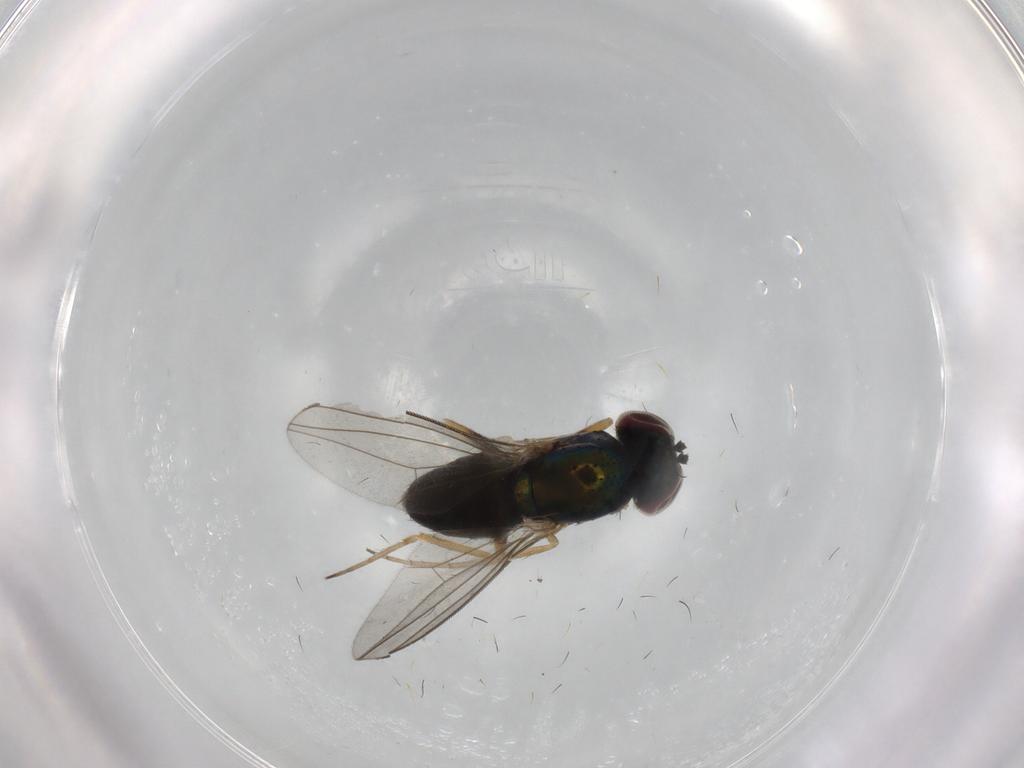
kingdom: Animalia
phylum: Arthropoda
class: Insecta
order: Diptera
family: Dolichopodidae
